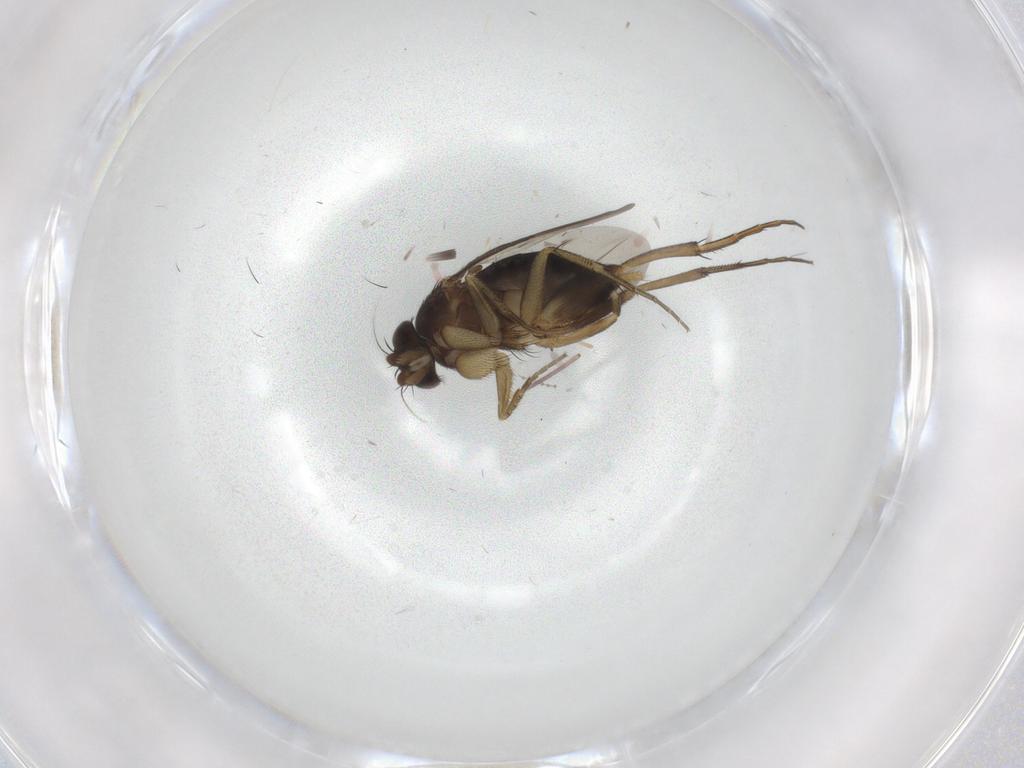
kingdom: Animalia
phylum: Arthropoda
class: Insecta
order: Diptera
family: Phoridae
